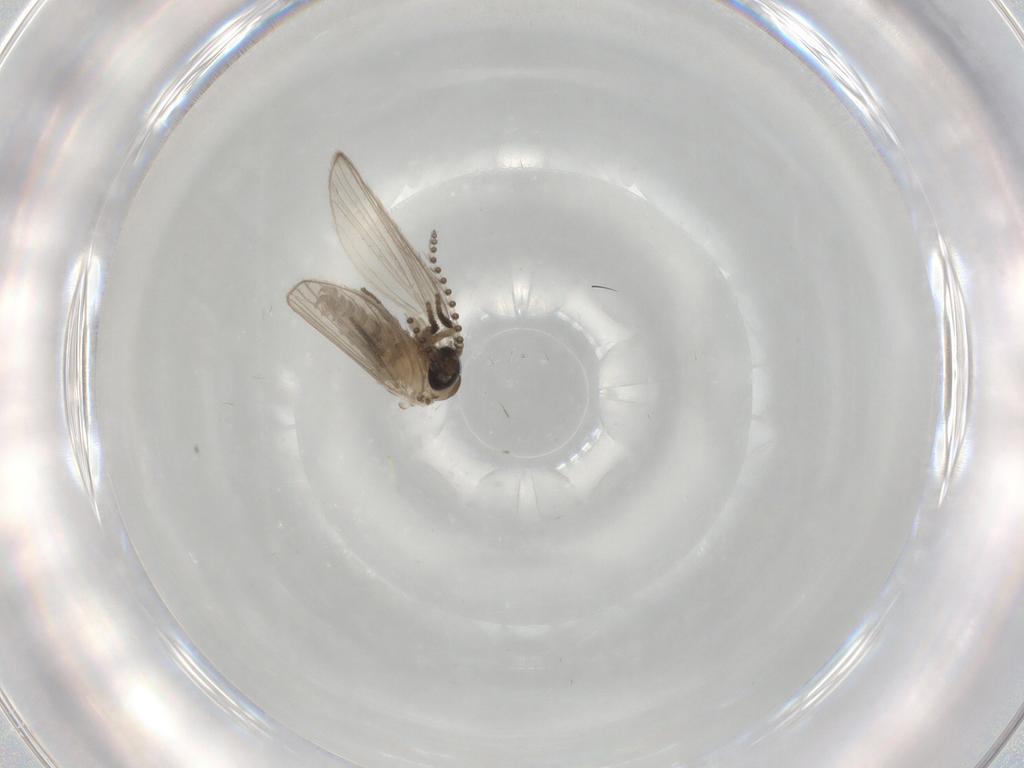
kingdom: Animalia
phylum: Arthropoda
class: Insecta
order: Diptera
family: Psychodidae
